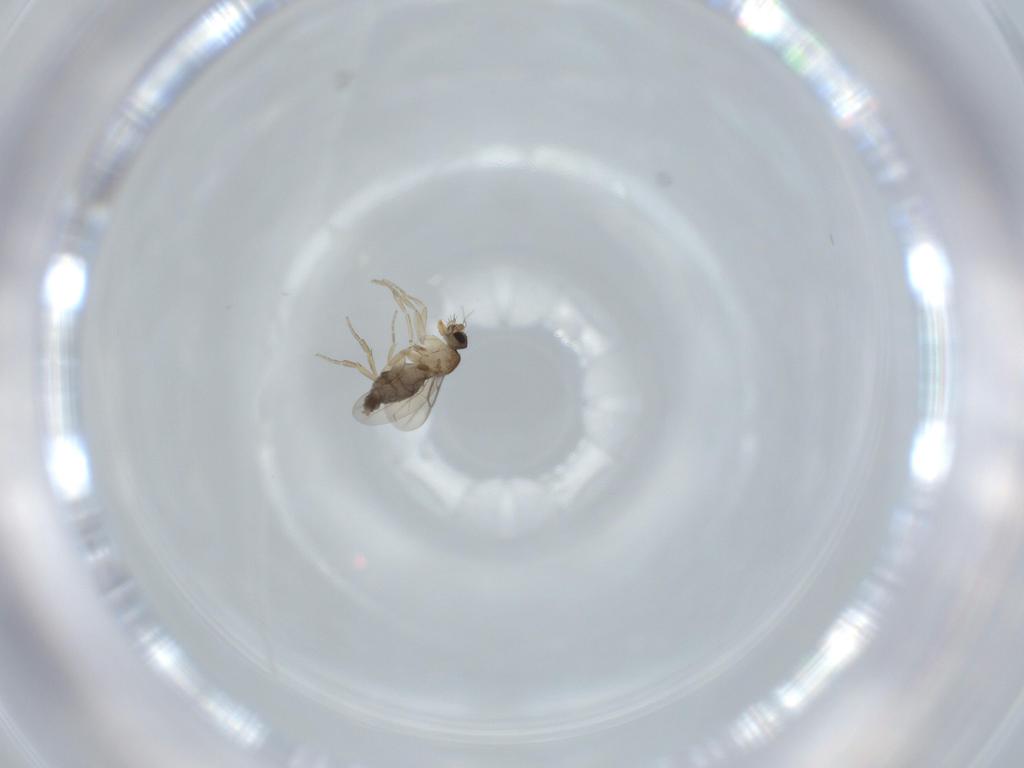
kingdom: Animalia
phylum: Arthropoda
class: Insecta
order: Diptera
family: Phoridae
